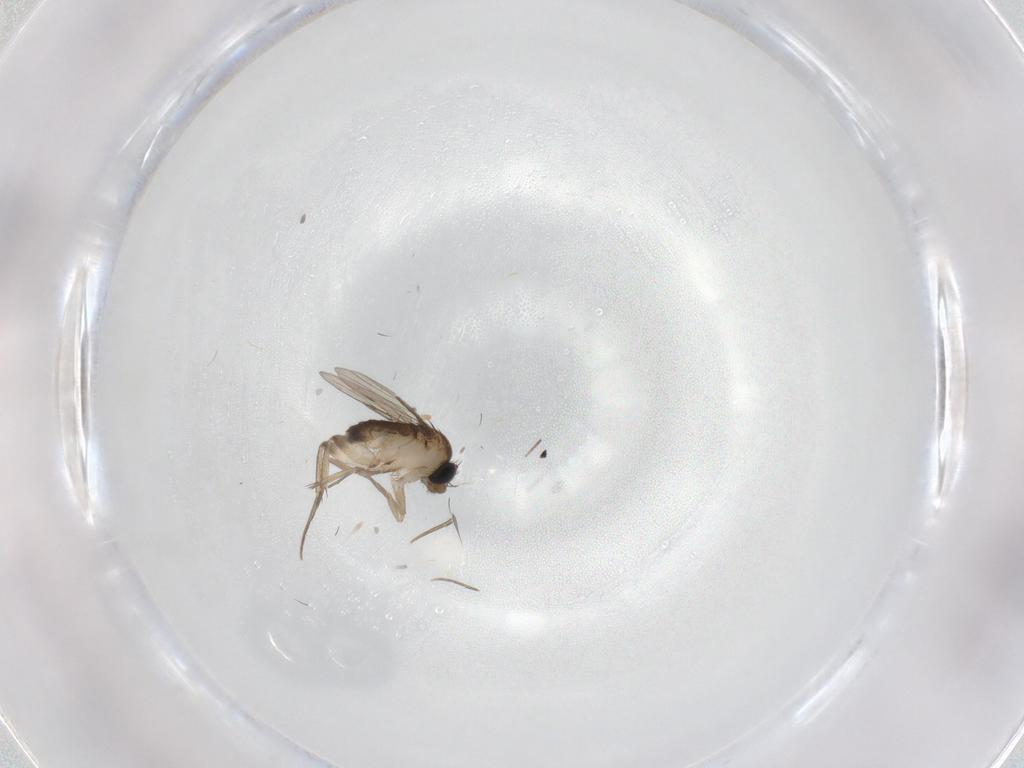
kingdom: Animalia
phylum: Arthropoda
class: Insecta
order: Diptera
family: Phoridae
